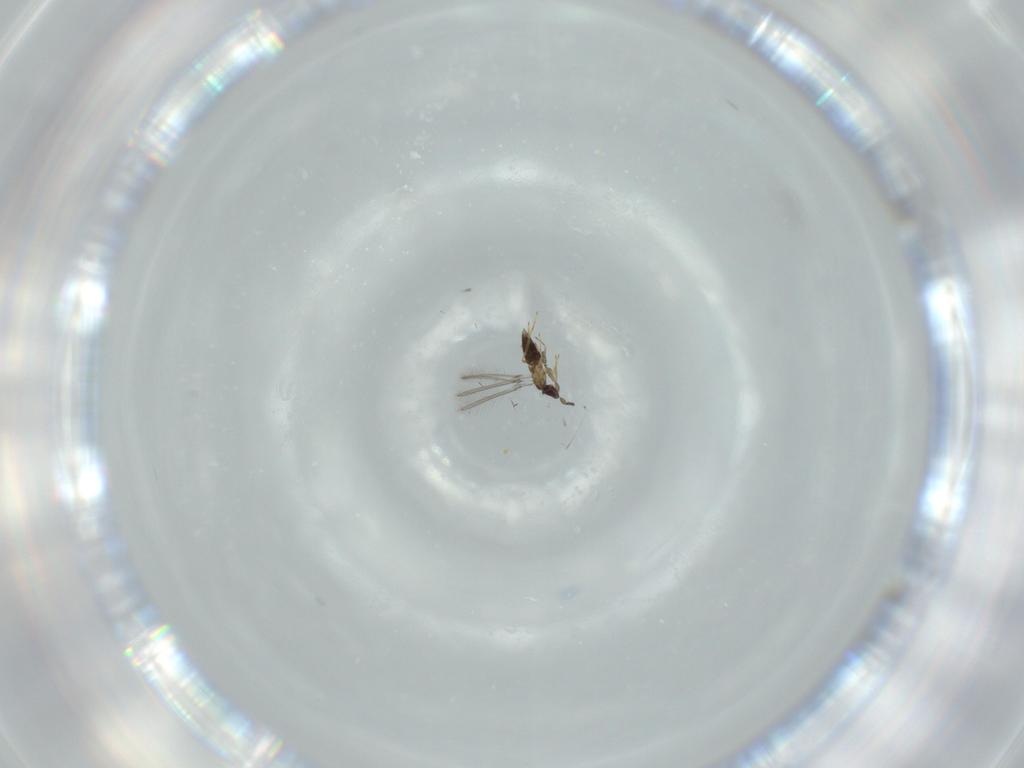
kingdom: Animalia
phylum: Arthropoda
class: Insecta
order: Hymenoptera
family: Mymaridae
